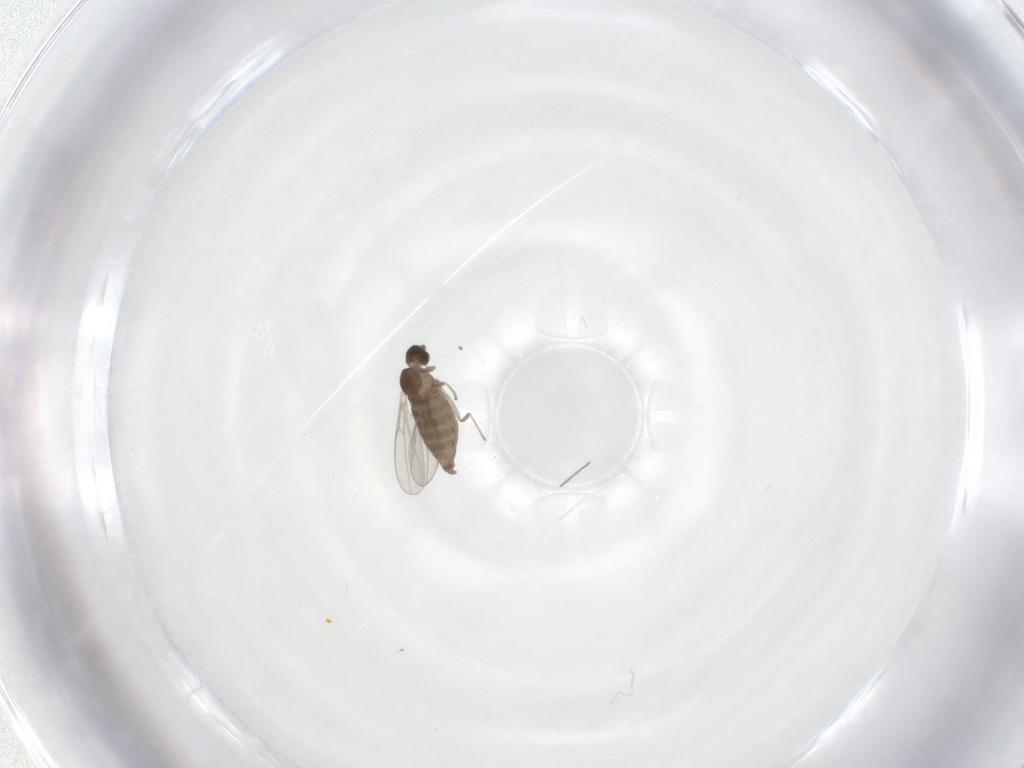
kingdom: Animalia
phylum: Arthropoda
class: Insecta
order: Diptera
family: Cecidomyiidae
